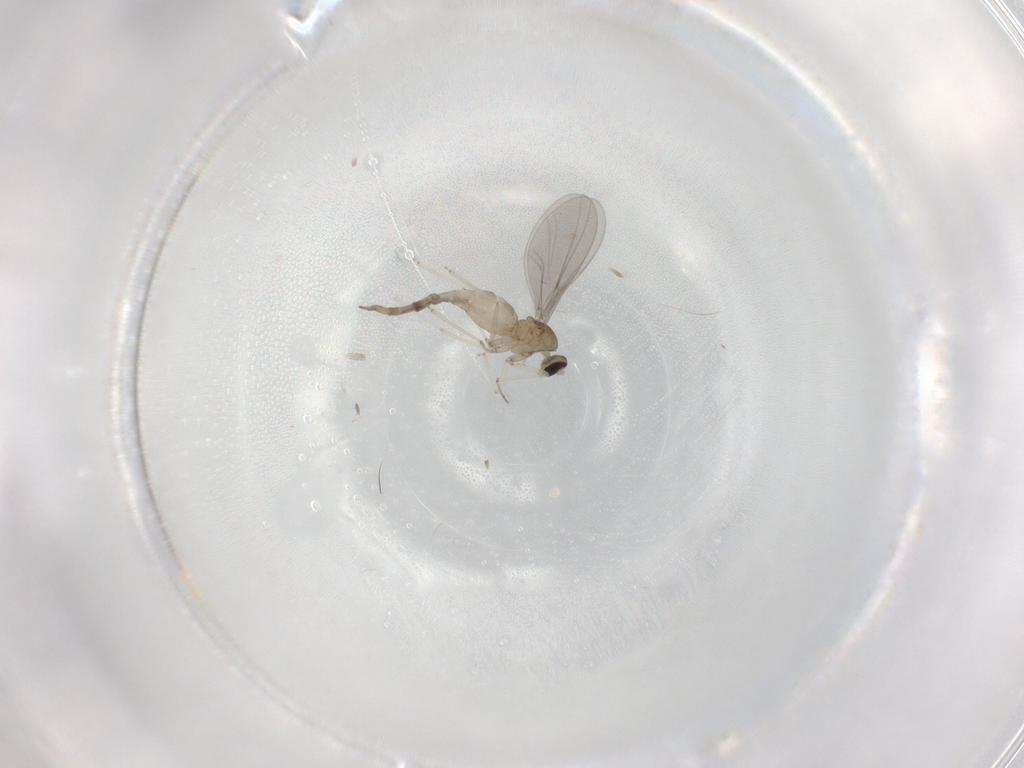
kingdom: Animalia
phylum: Arthropoda
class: Insecta
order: Diptera
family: Cecidomyiidae
